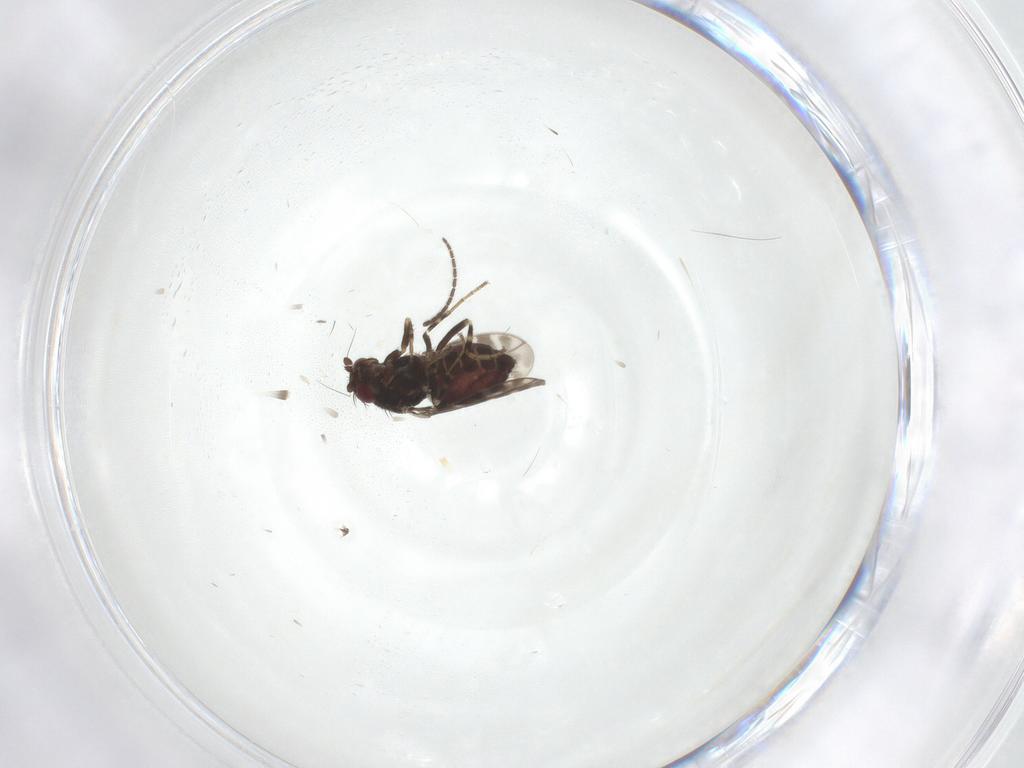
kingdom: Animalia
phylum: Arthropoda
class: Insecta
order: Diptera
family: Sphaeroceridae
